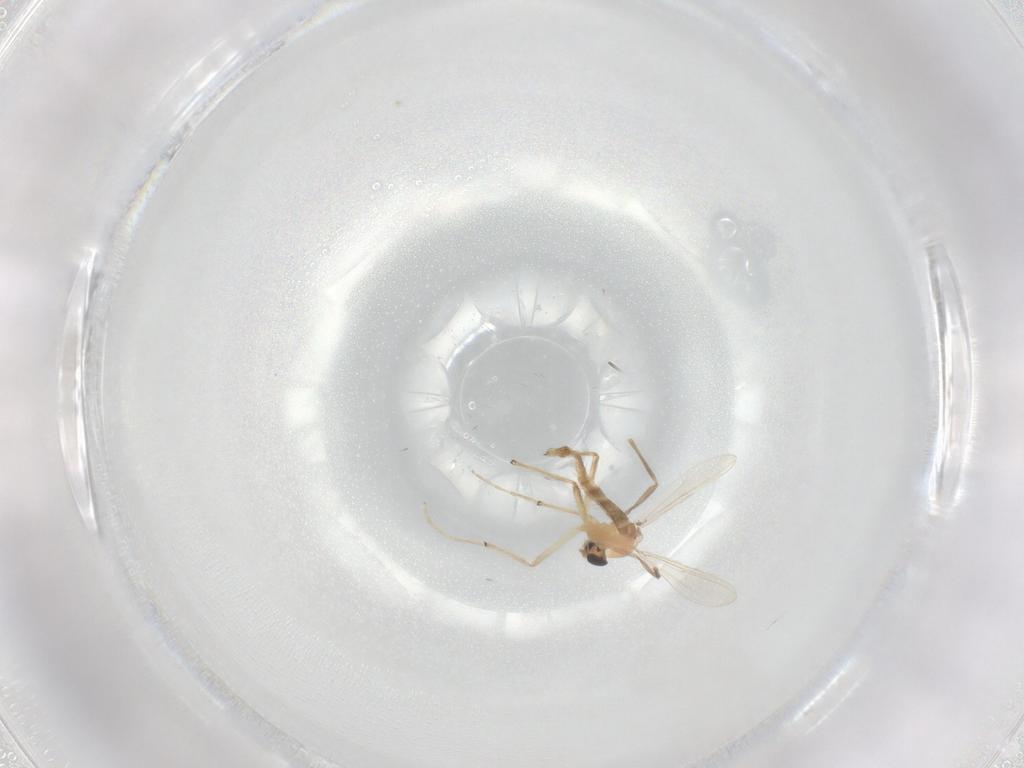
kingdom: Animalia
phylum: Arthropoda
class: Insecta
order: Diptera
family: Chironomidae
